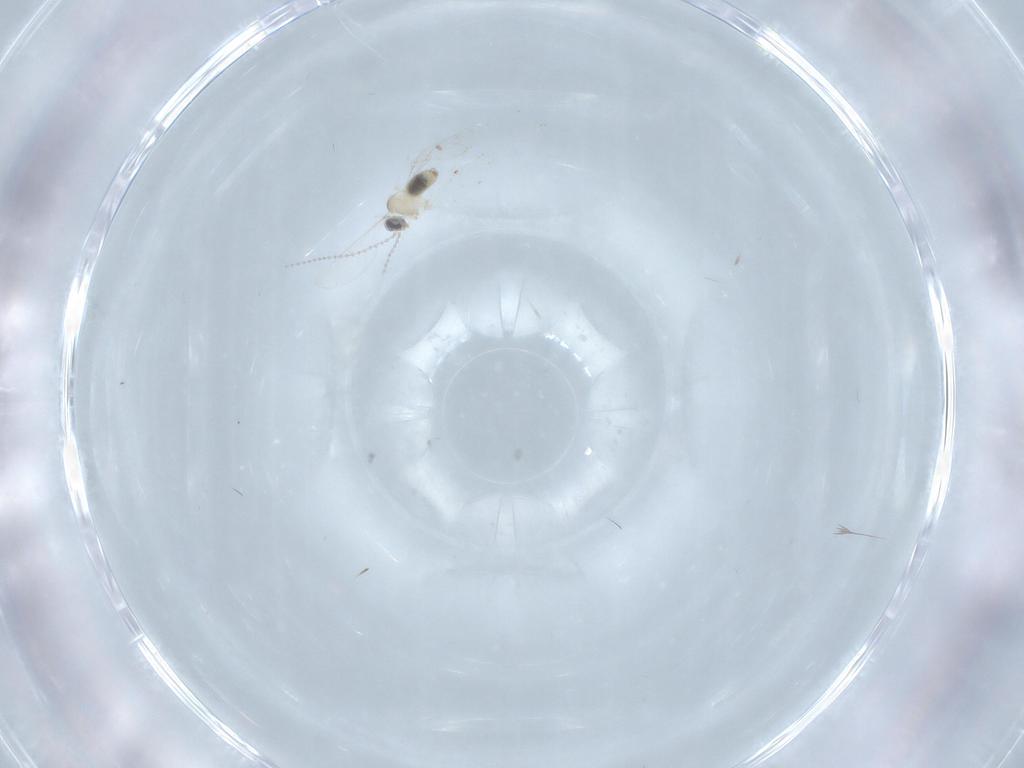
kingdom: Animalia
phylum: Arthropoda
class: Insecta
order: Diptera
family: Cecidomyiidae
